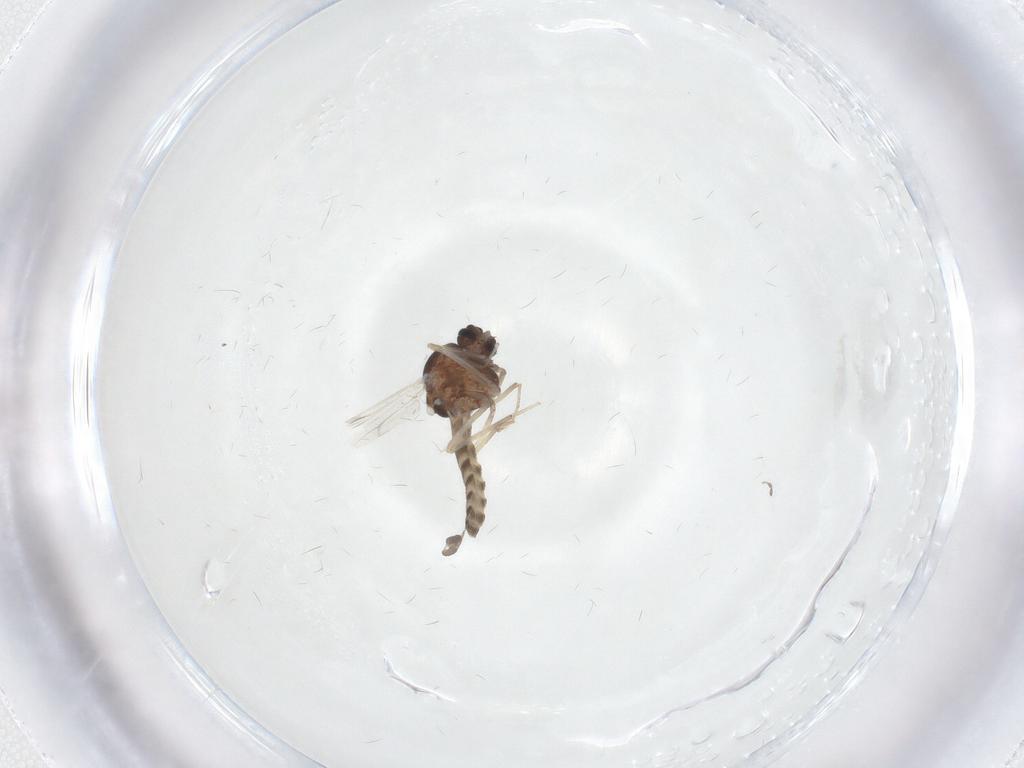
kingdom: Animalia
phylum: Arthropoda
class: Insecta
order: Diptera
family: Ceratopogonidae
